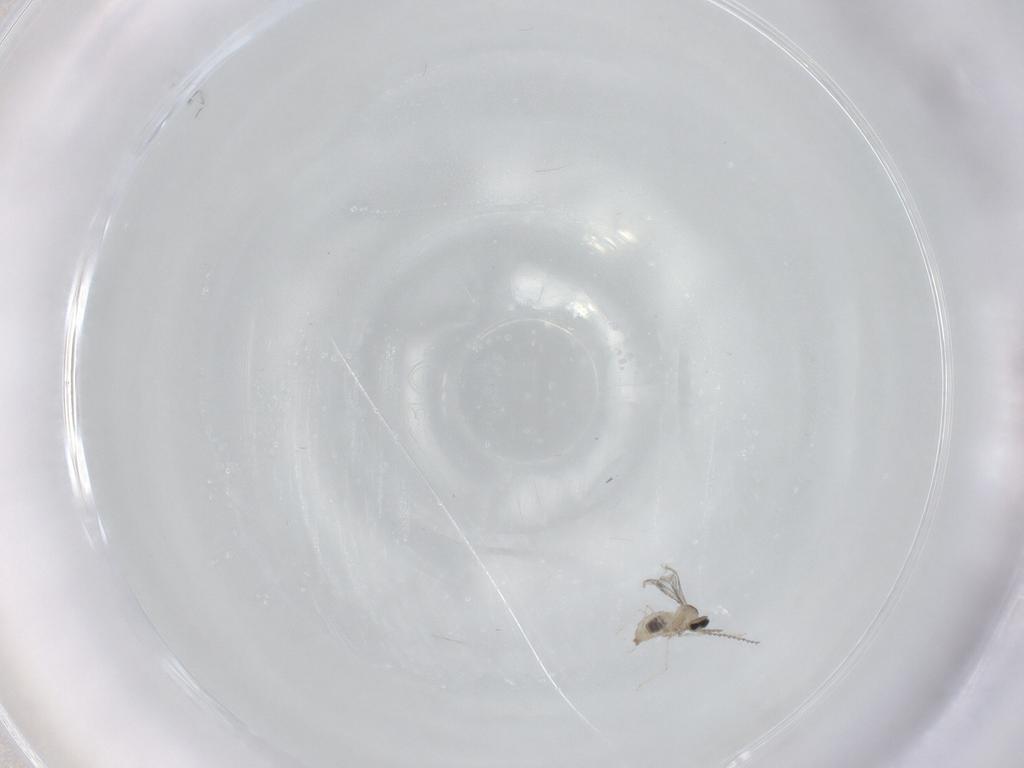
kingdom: Animalia
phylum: Arthropoda
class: Insecta
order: Diptera
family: Cecidomyiidae
